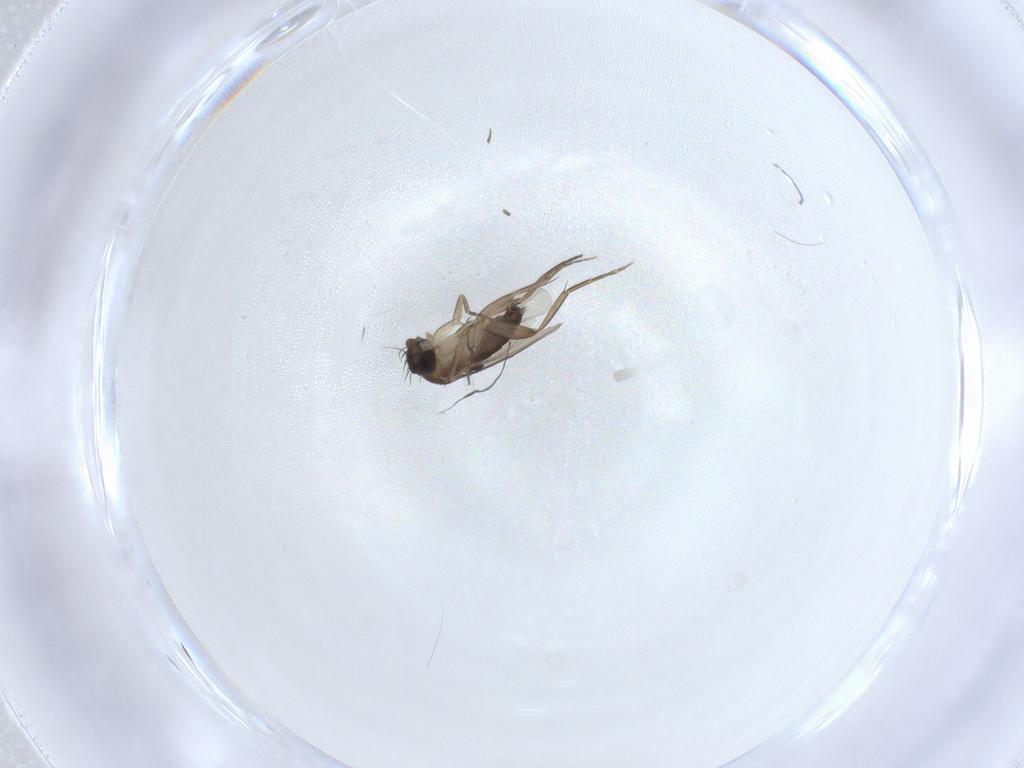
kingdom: Animalia
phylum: Arthropoda
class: Insecta
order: Diptera
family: Phoridae
